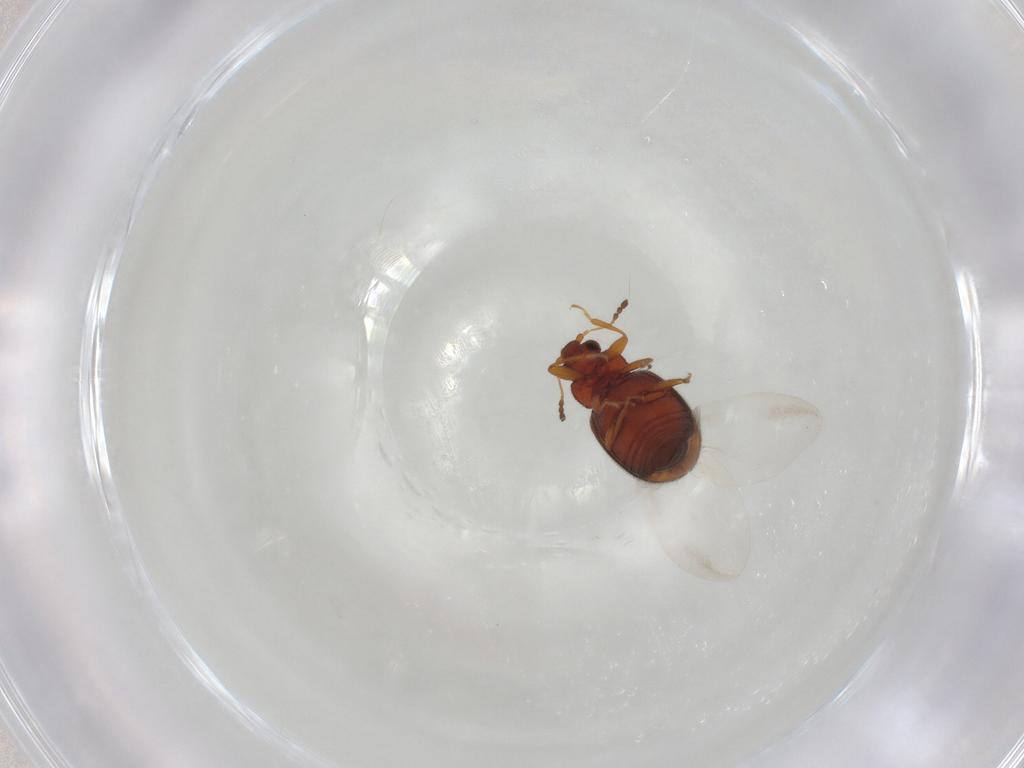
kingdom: Animalia
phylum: Arthropoda
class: Insecta
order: Coleoptera
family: Latridiidae
